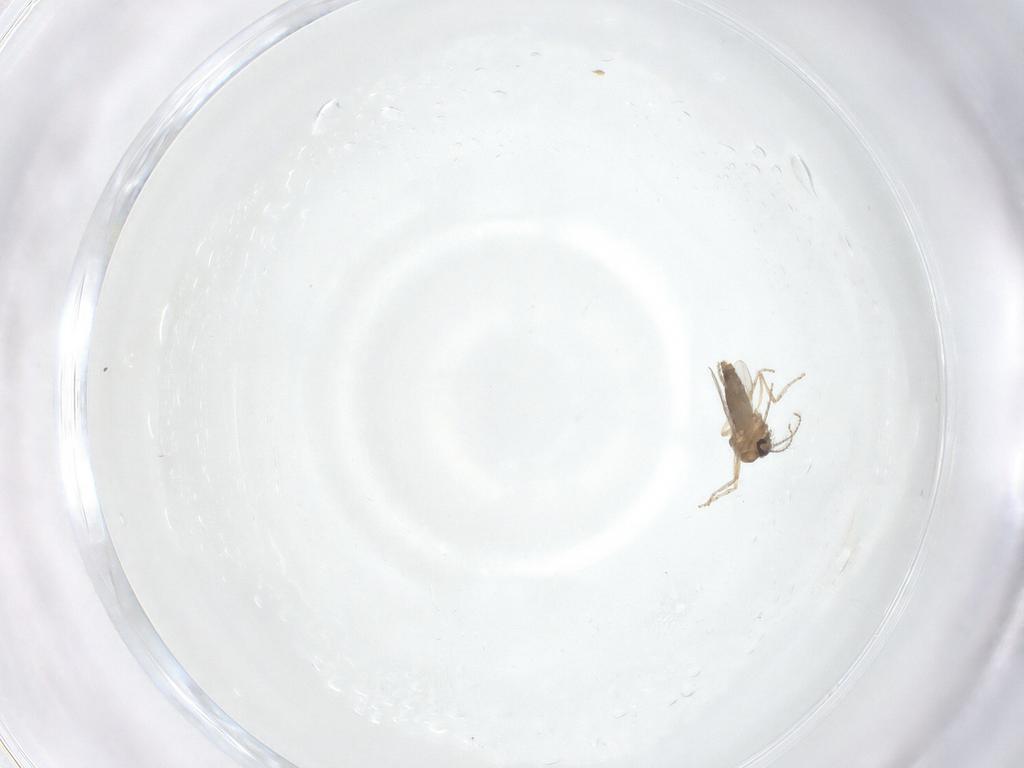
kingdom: Animalia
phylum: Arthropoda
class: Insecta
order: Diptera
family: Ceratopogonidae
